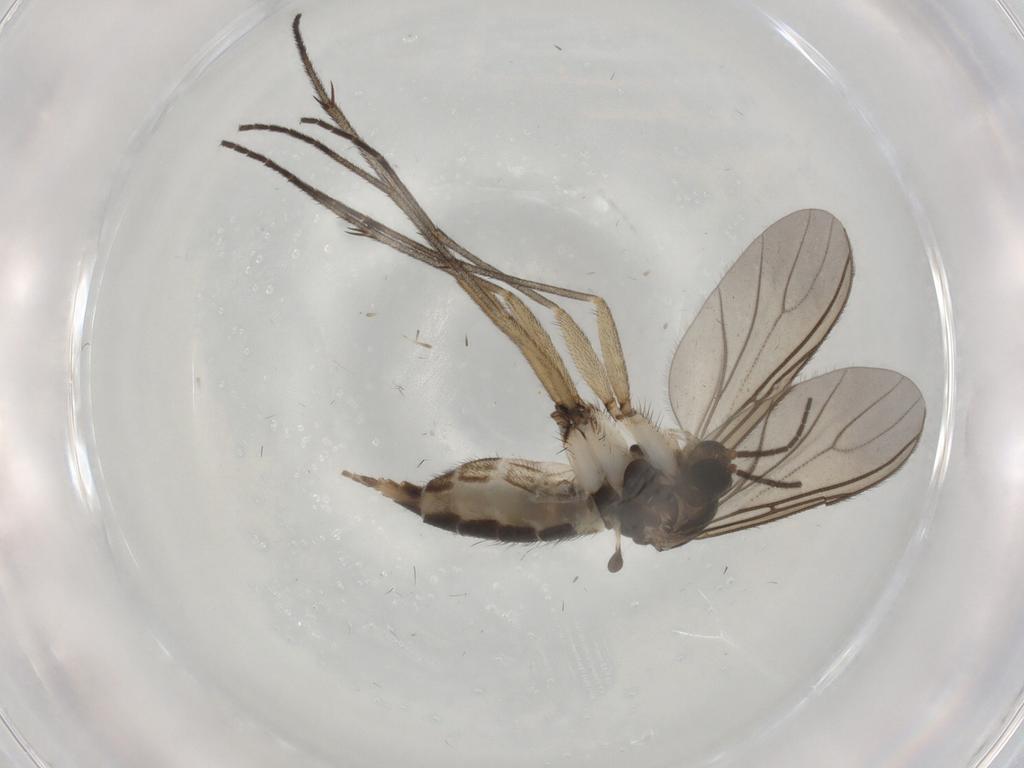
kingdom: Animalia
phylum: Arthropoda
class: Insecta
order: Diptera
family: Sciaridae
